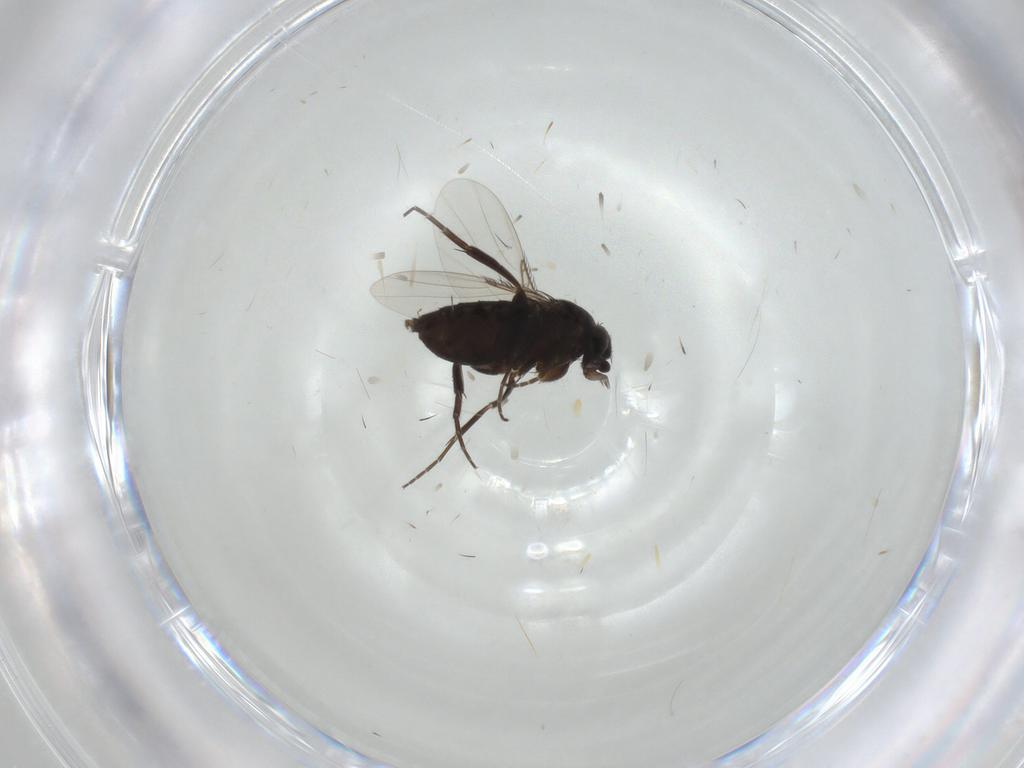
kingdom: Animalia
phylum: Arthropoda
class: Insecta
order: Diptera
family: Phoridae
